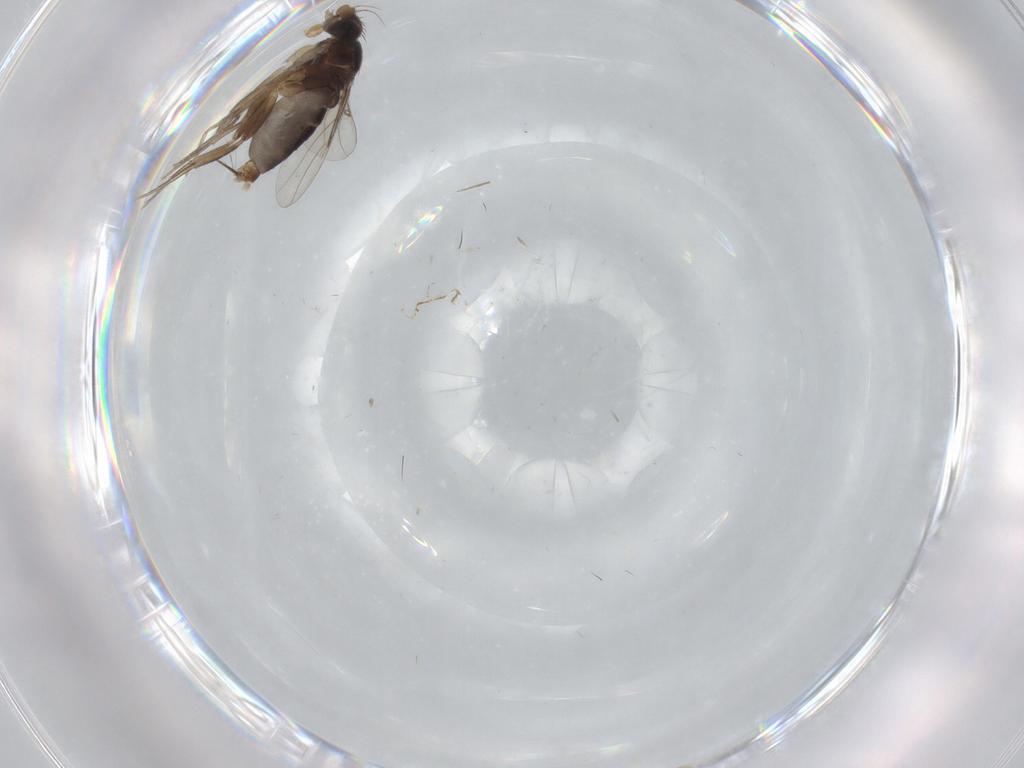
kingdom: Animalia
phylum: Arthropoda
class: Insecta
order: Diptera
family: Phoridae
